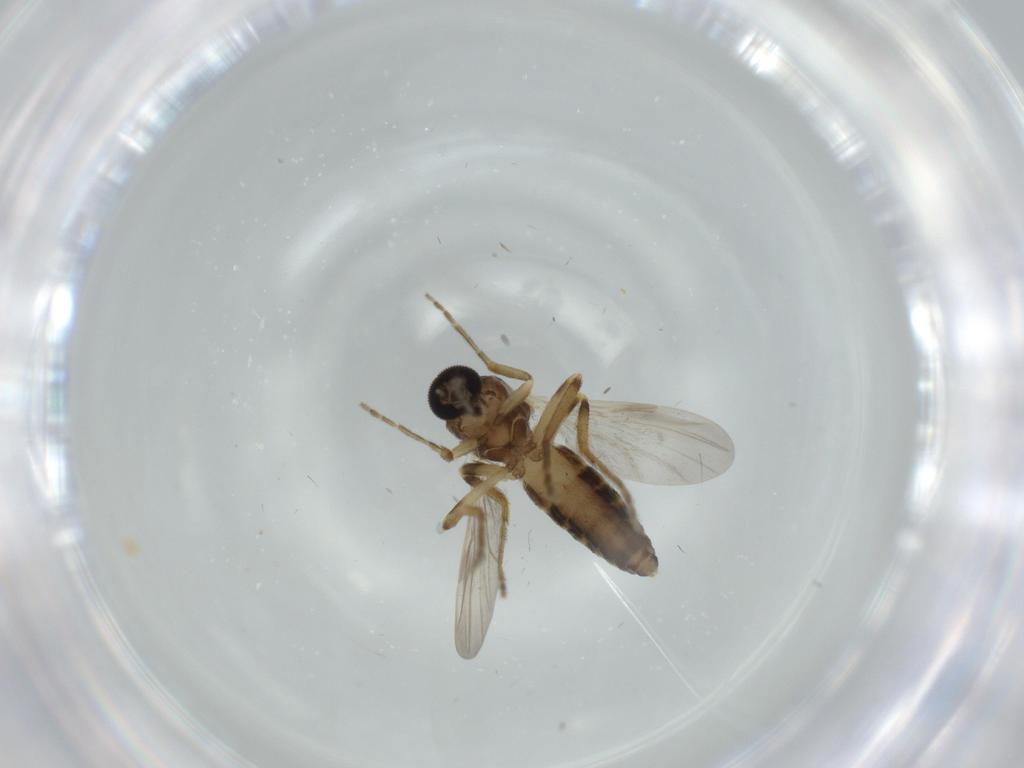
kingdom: Animalia
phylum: Arthropoda
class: Insecta
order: Diptera
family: Ceratopogonidae
